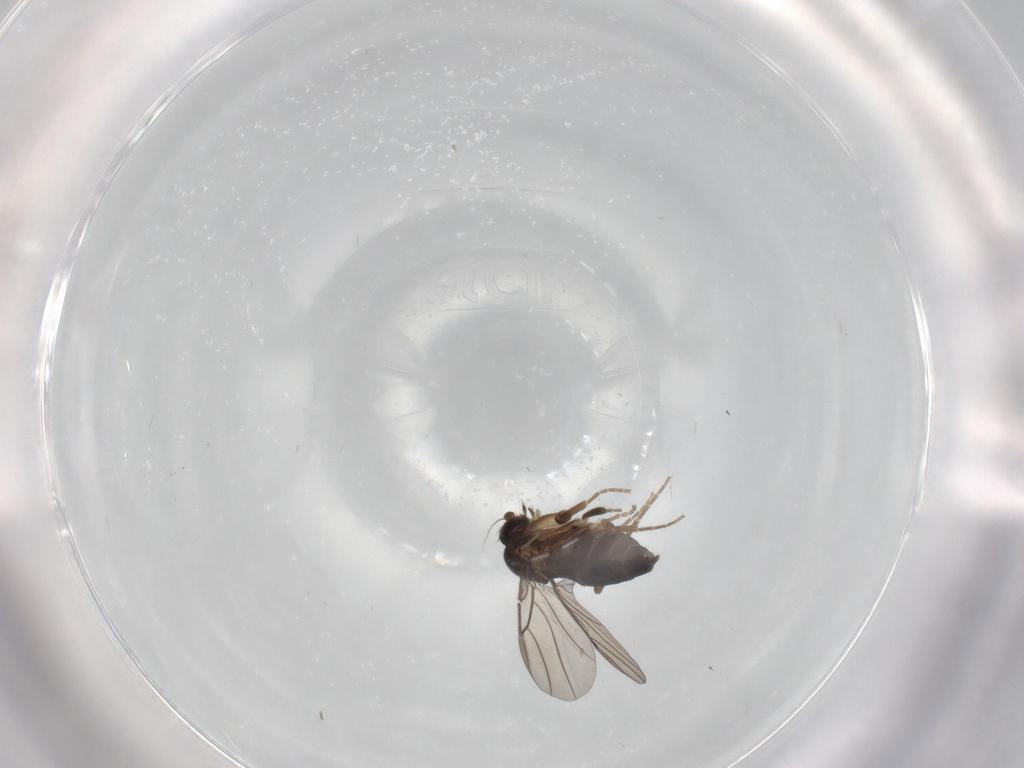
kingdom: Animalia
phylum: Arthropoda
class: Insecta
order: Diptera
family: Phoridae
